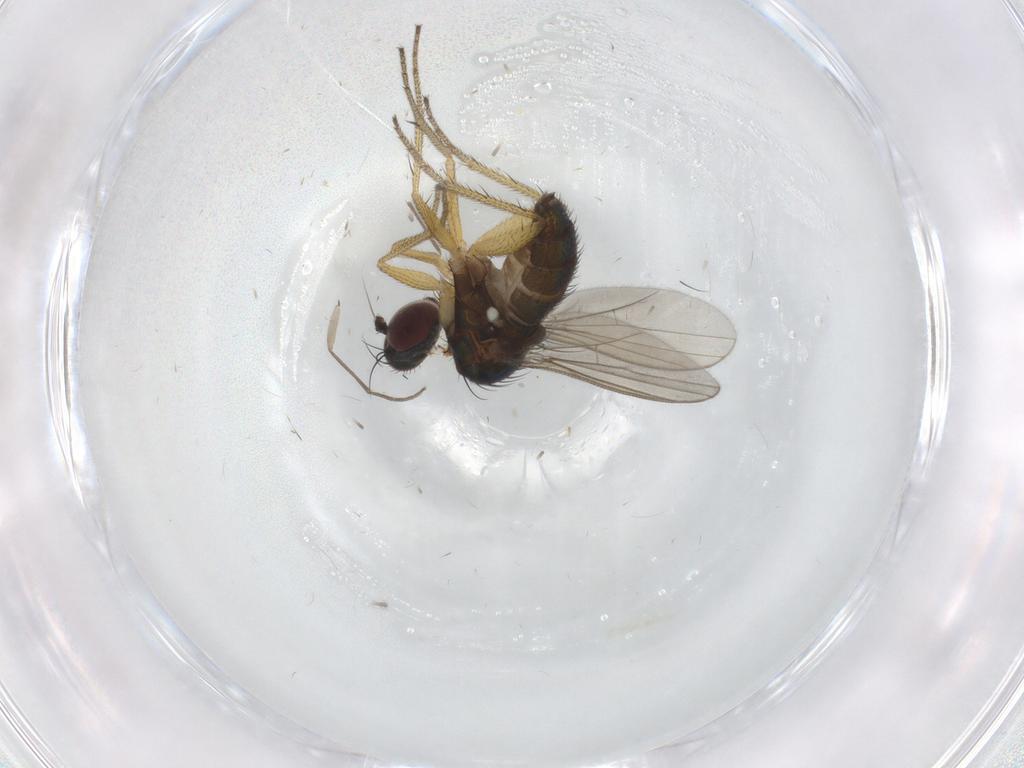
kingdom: Animalia
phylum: Arthropoda
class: Insecta
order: Diptera
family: Dolichopodidae
